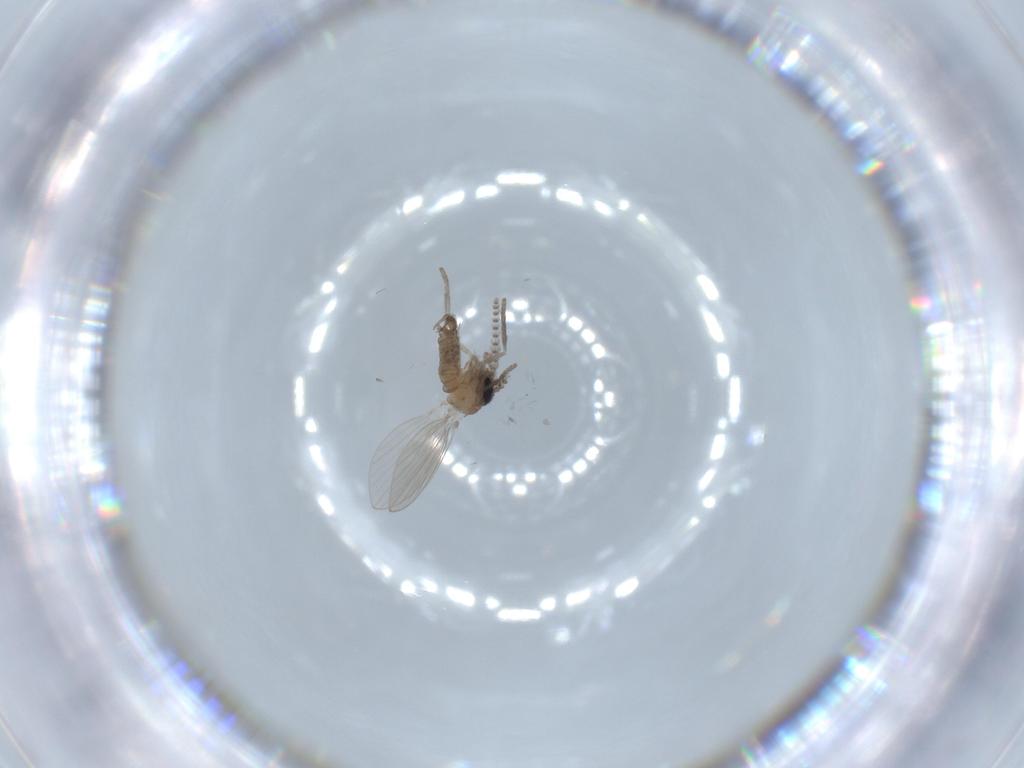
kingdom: Animalia
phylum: Arthropoda
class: Insecta
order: Diptera
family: Psychodidae
